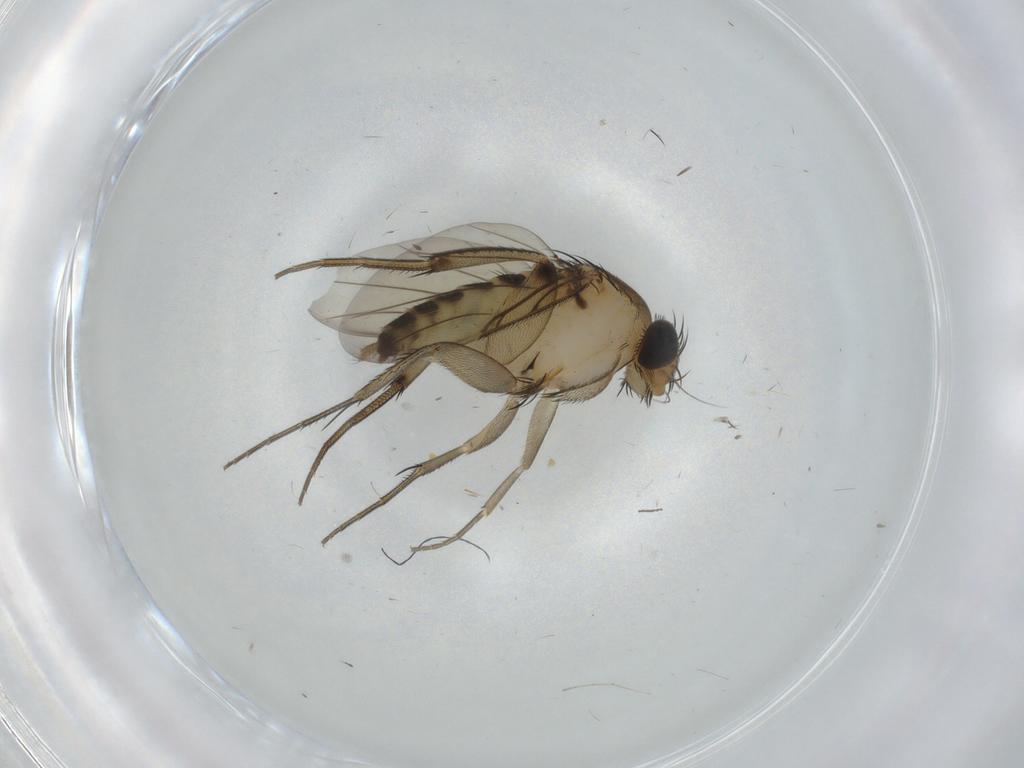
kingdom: Animalia
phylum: Arthropoda
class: Insecta
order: Diptera
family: Phoridae
